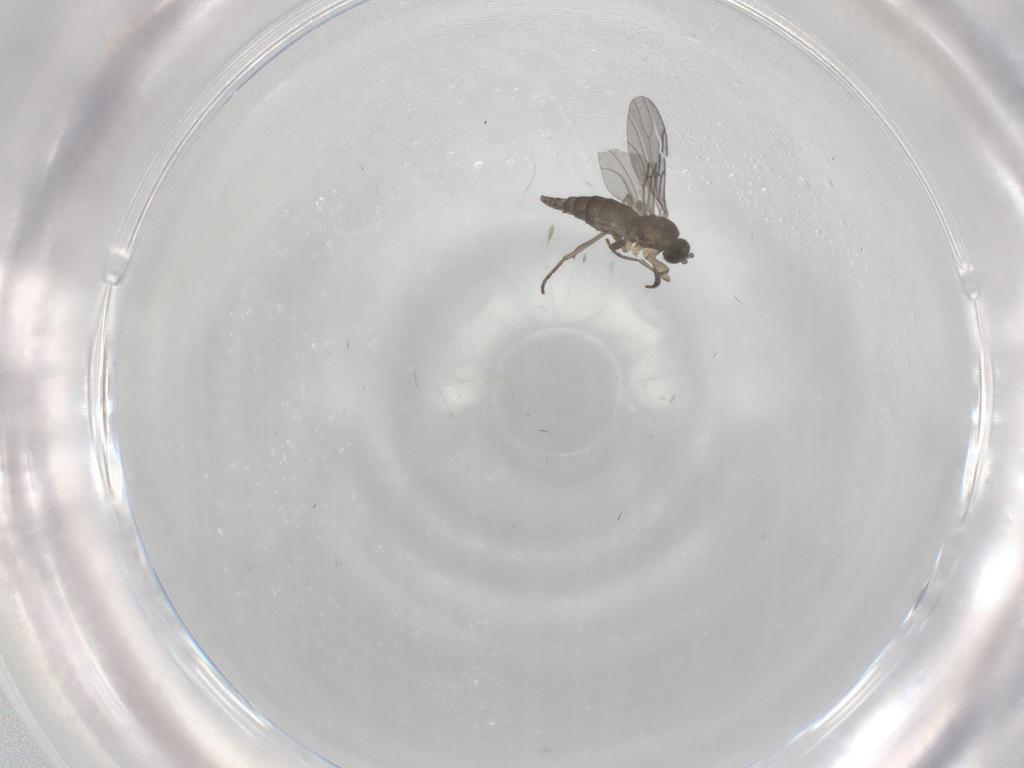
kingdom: Animalia
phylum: Arthropoda
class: Insecta
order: Diptera
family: Sciaridae
